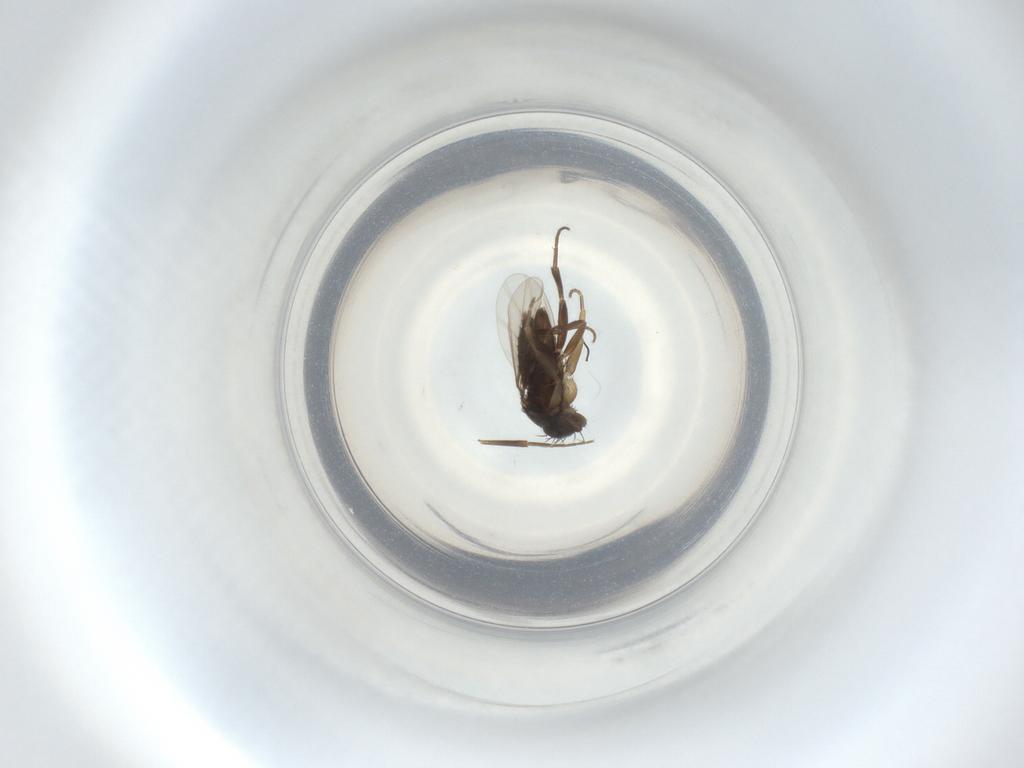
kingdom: Animalia
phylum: Arthropoda
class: Insecta
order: Diptera
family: Phoridae
